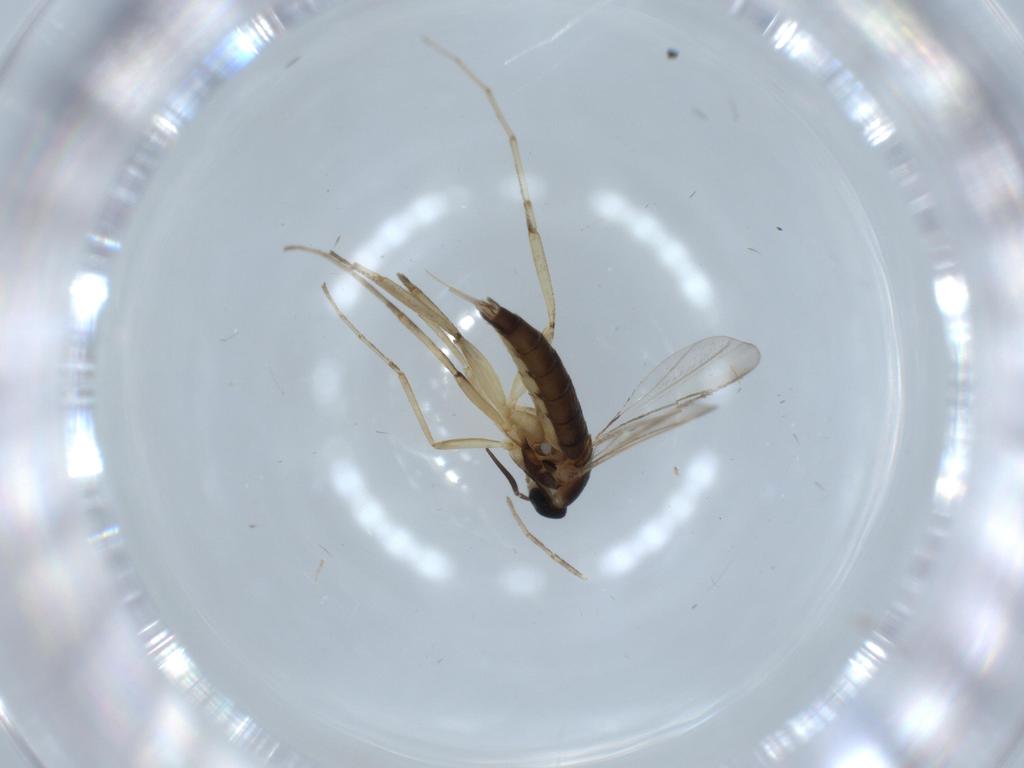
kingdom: Animalia
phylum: Arthropoda
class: Insecta
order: Diptera
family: Cecidomyiidae
